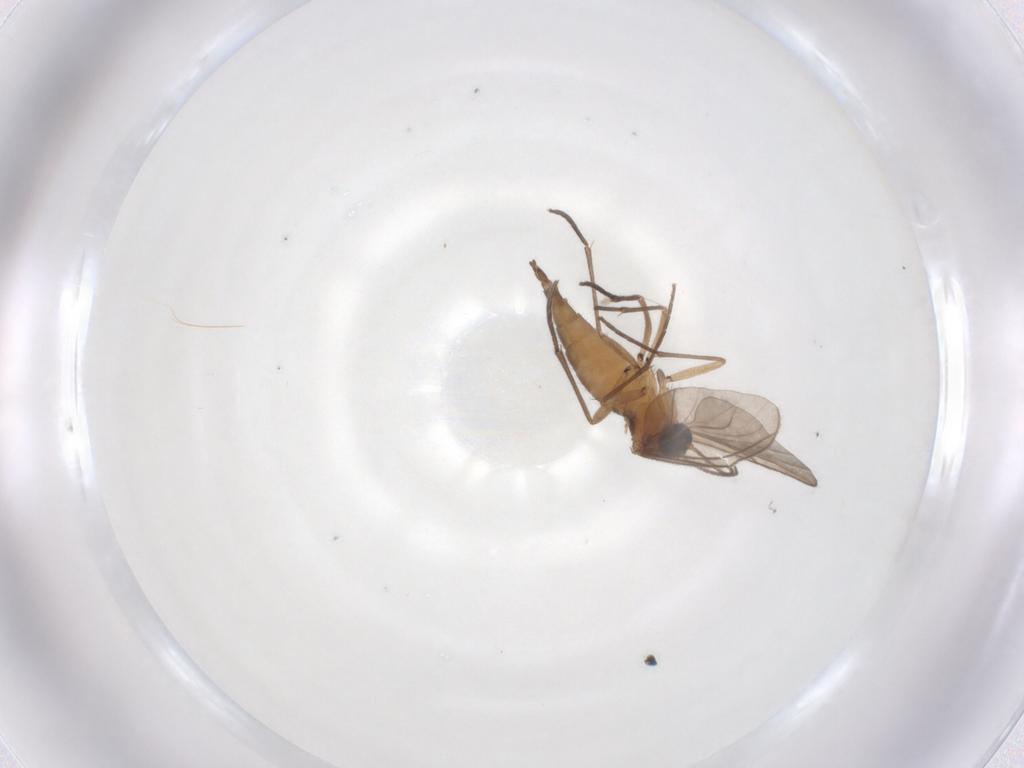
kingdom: Animalia
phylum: Arthropoda
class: Insecta
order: Diptera
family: Sciaridae
